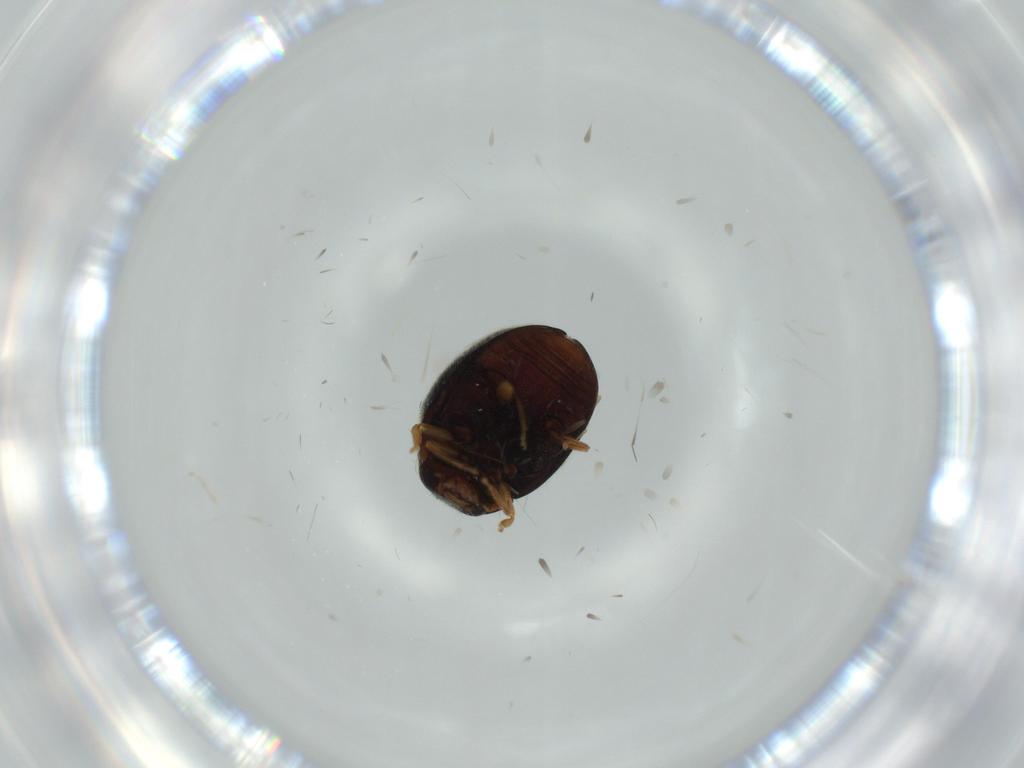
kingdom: Animalia
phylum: Arthropoda
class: Insecta
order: Coleoptera
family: Coccinellidae
